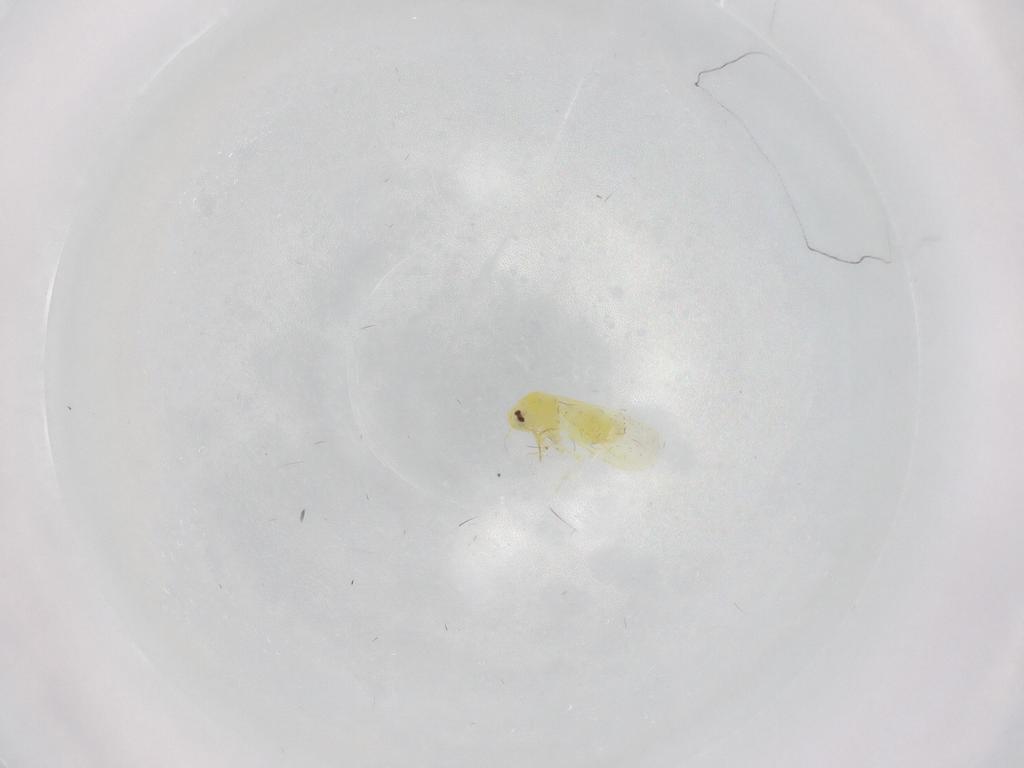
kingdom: Animalia
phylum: Arthropoda
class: Insecta
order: Hemiptera
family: Aleyrodidae
